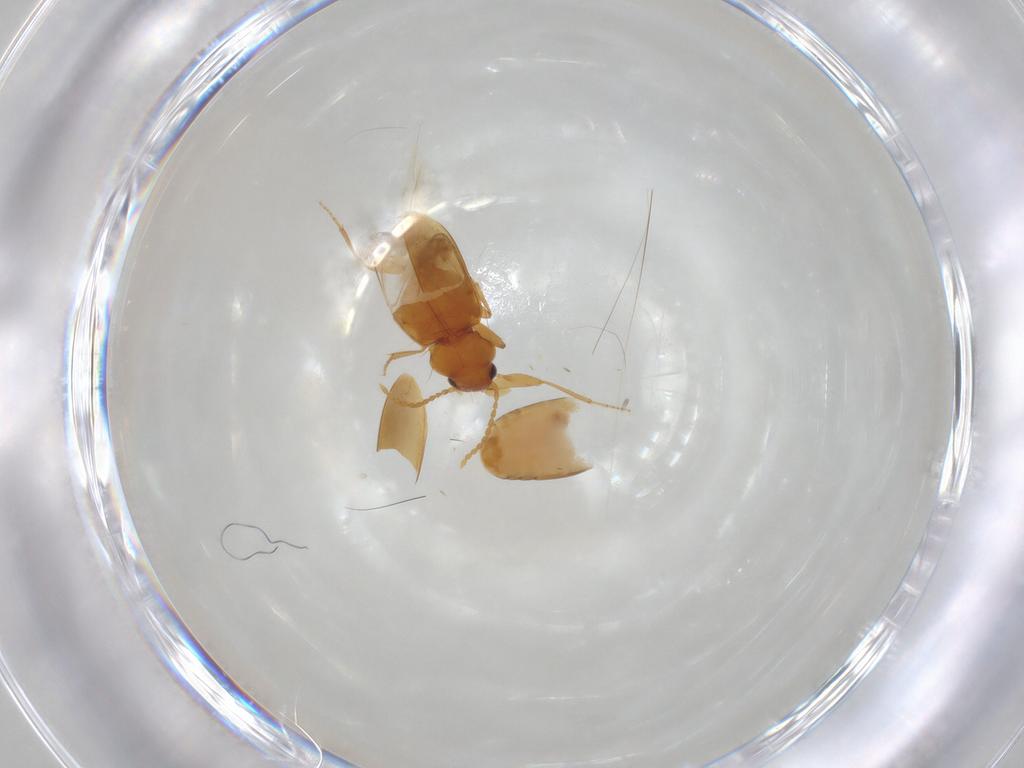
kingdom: Animalia
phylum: Arthropoda
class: Insecta
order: Coleoptera
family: Carabidae
